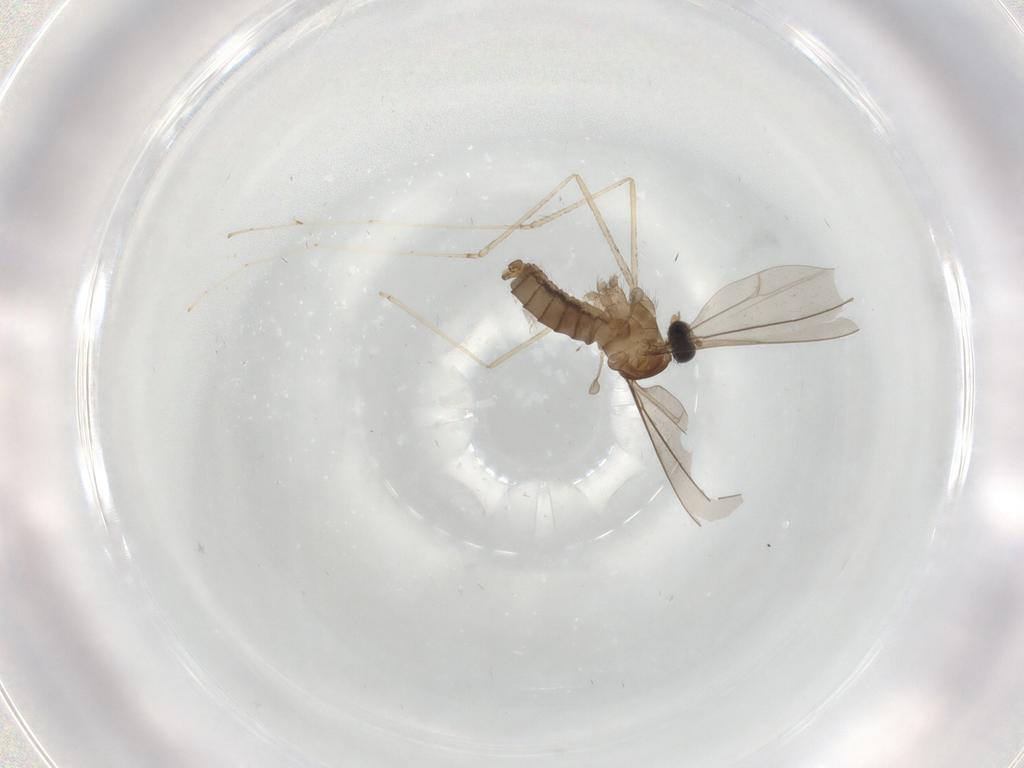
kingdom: Animalia
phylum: Arthropoda
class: Insecta
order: Diptera
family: Cecidomyiidae
